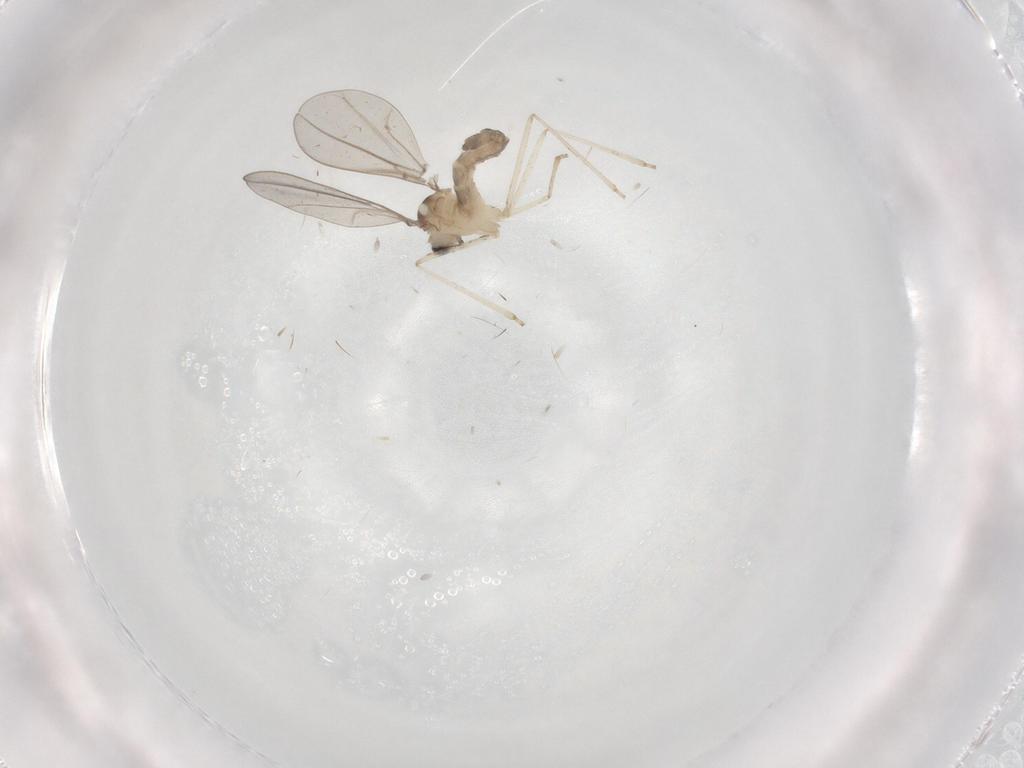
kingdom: Animalia
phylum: Arthropoda
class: Insecta
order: Diptera
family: Cecidomyiidae
